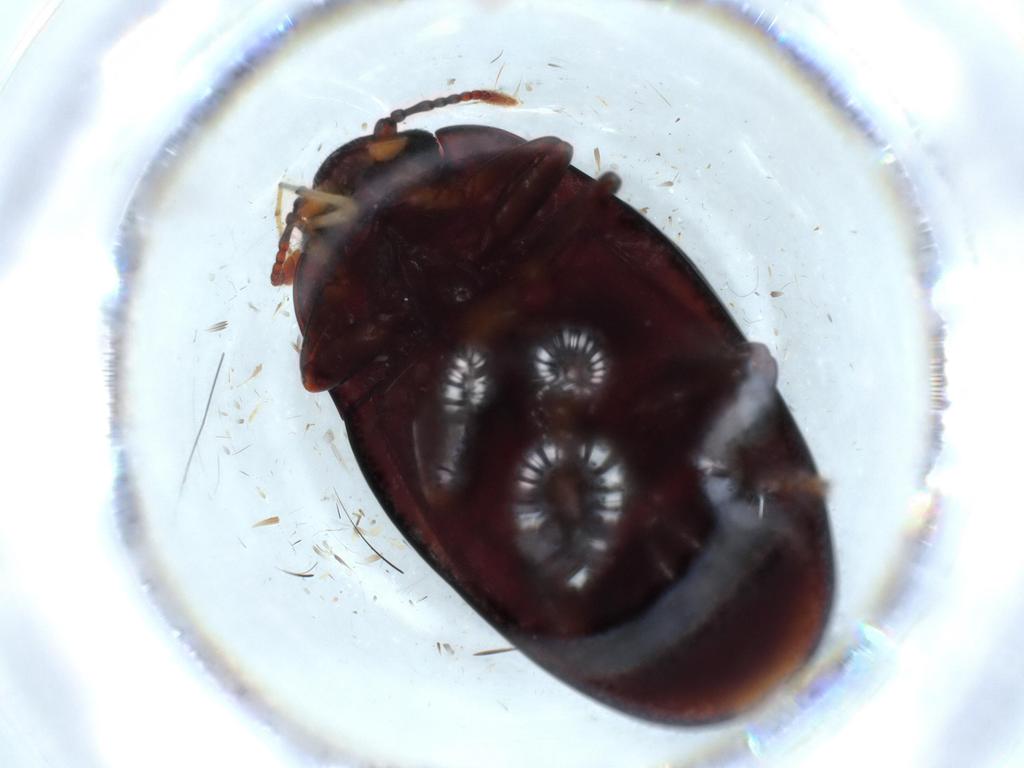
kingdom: Animalia
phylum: Arthropoda
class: Insecta
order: Coleoptera
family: Erotylidae
